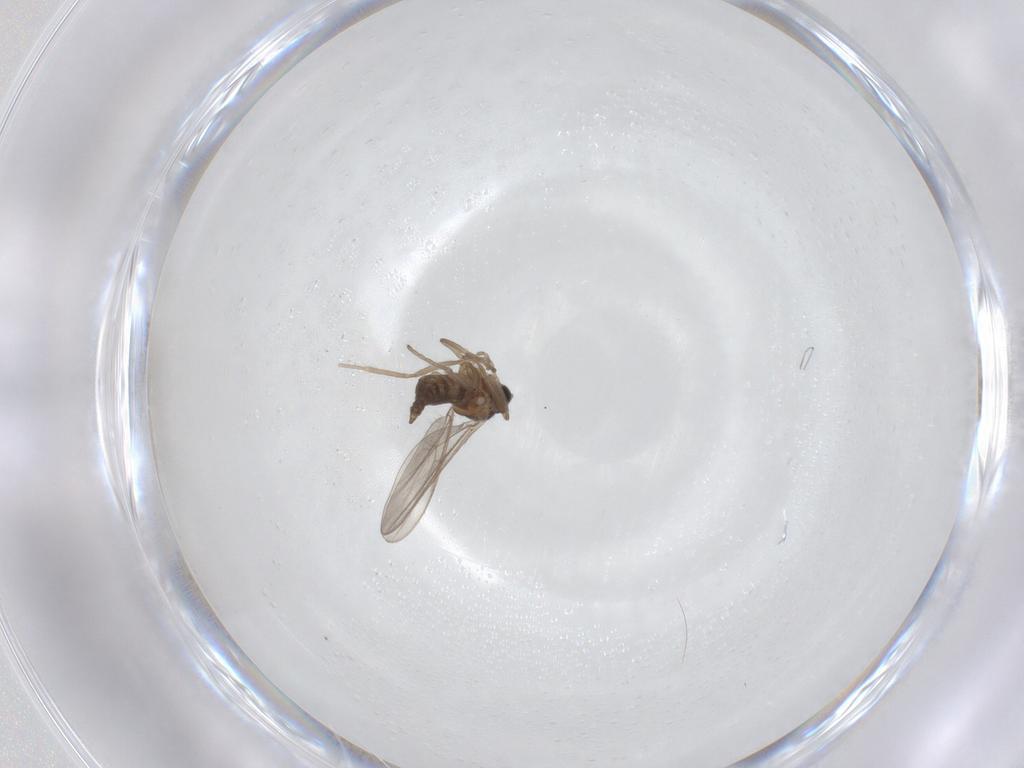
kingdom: Animalia
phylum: Arthropoda
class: Insecta
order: Diptera
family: Cecidomyiidae
